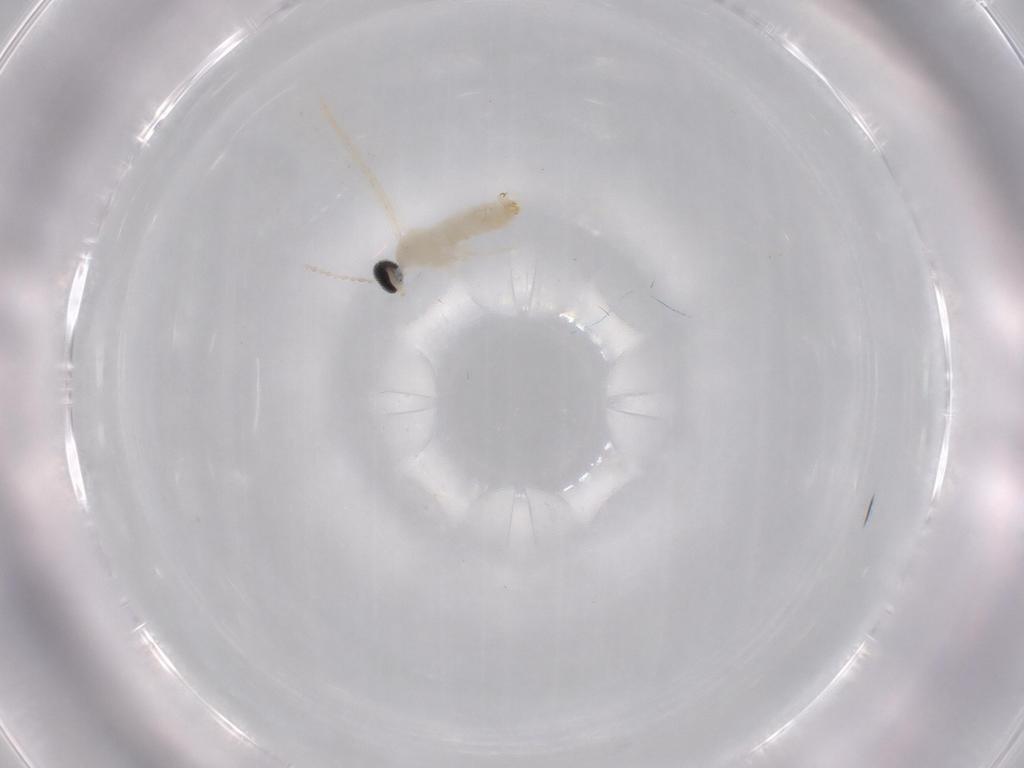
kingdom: Animalia
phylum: Arthropoda
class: Insecta
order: Diptera
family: Cecidomyiidae
